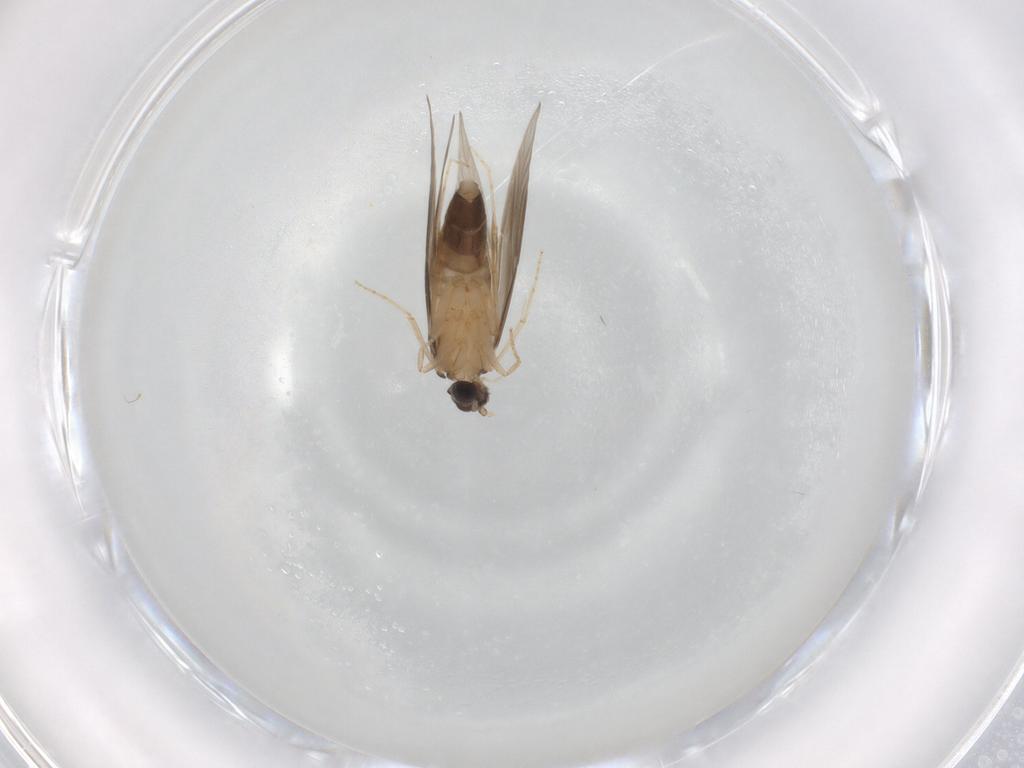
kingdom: Animalia
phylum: Arthropoda
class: Insecta
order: Trichoptera
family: Hydroptilidae
